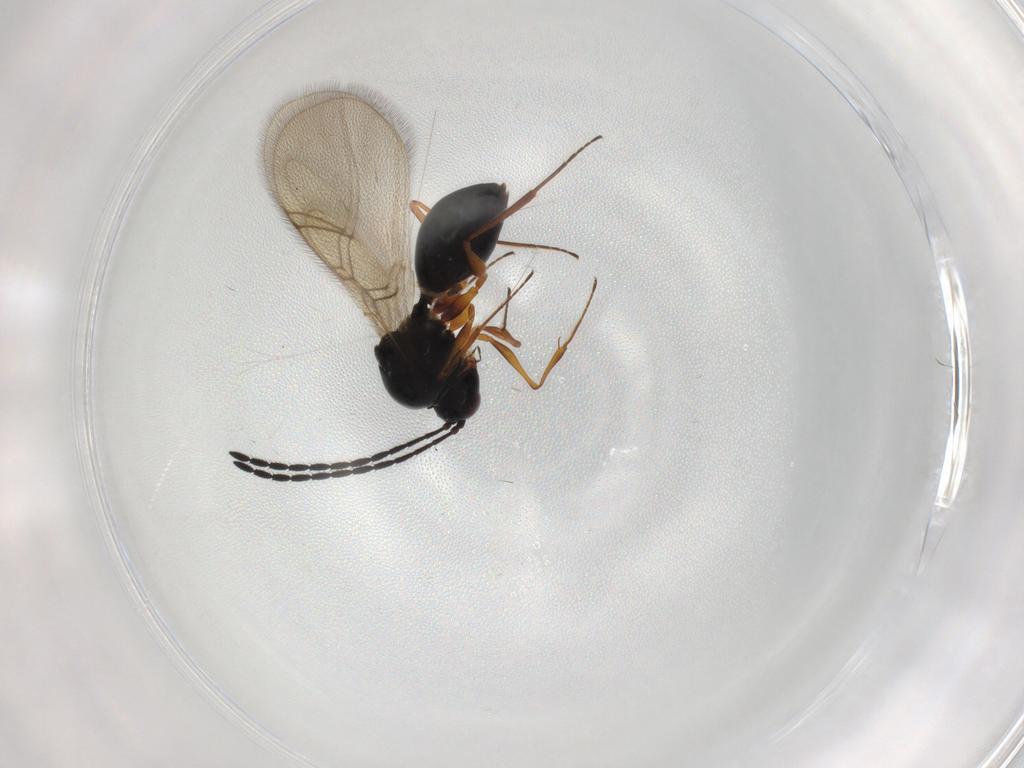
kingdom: Animalia
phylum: Arthropoda
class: Insecta
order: Hymenoptera
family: Figitidae
